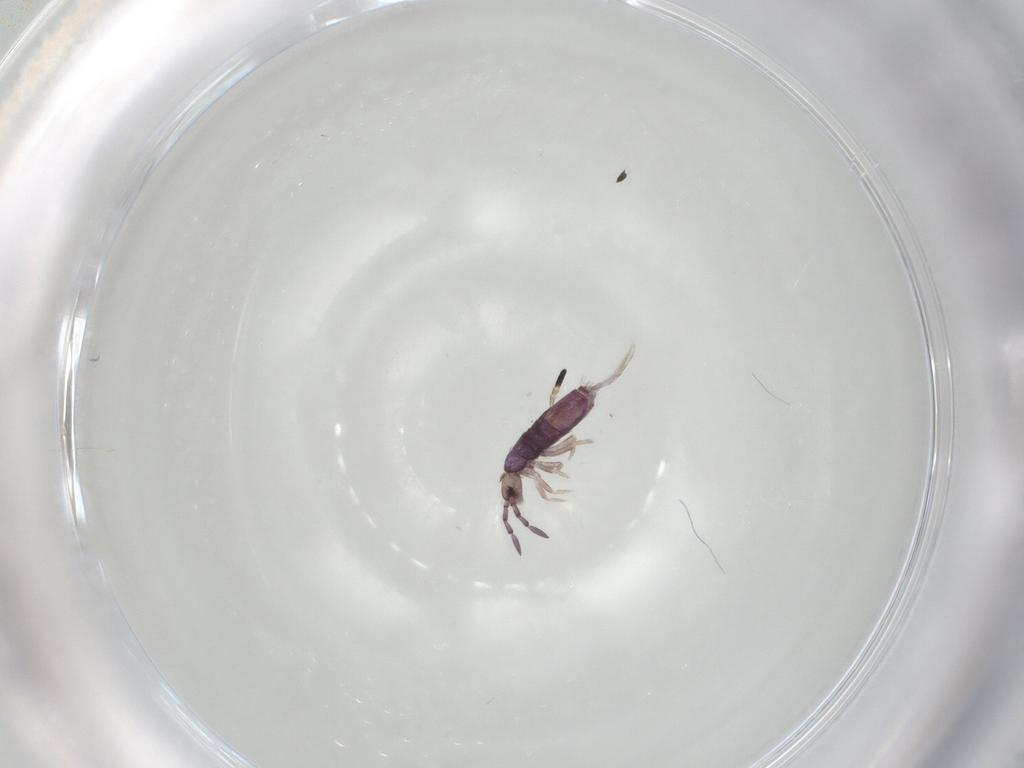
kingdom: Animalia
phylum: Arthropoda
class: Collembola
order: Entomobryomorpha
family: Entomobryidae
